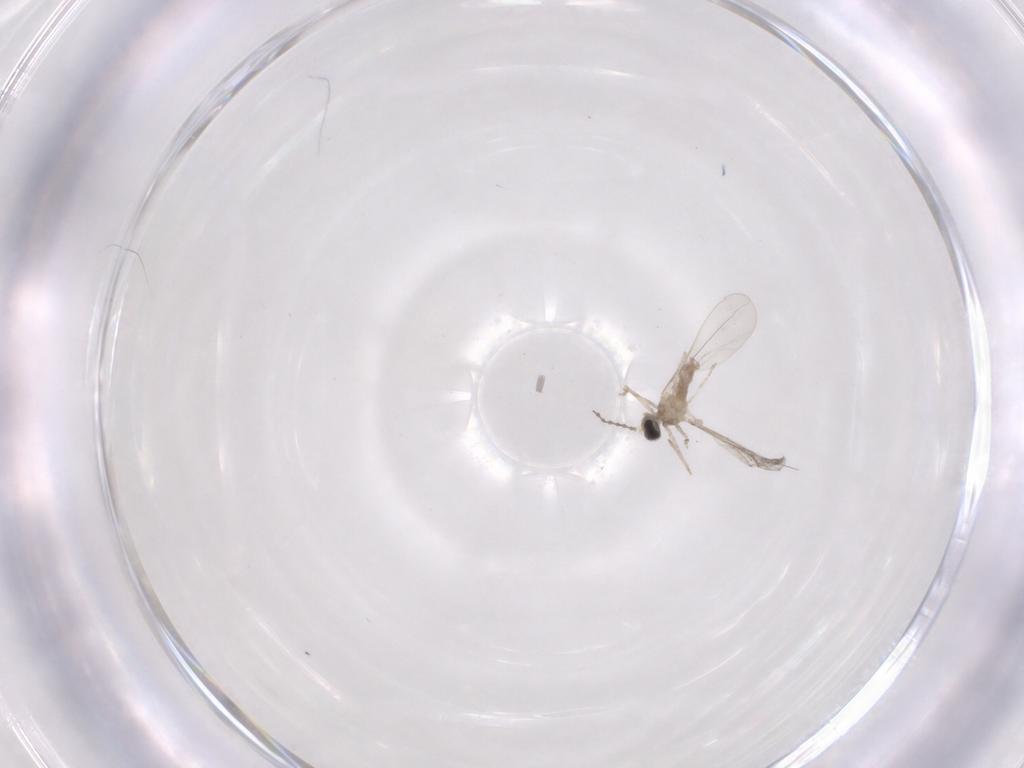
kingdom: Animalia
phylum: Arthropoda
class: Insecta
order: Diptera
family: Cecidomyiidae
